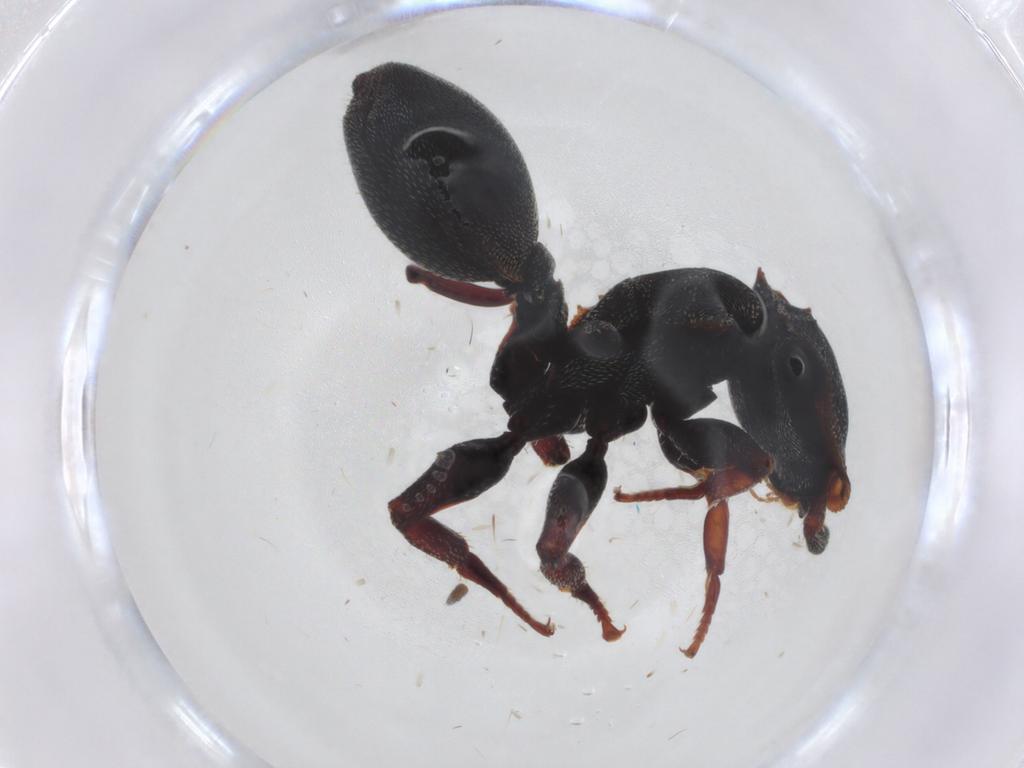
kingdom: Animalia
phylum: Arthropoda
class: Insecta
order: Hymenoptera
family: Formicidae
